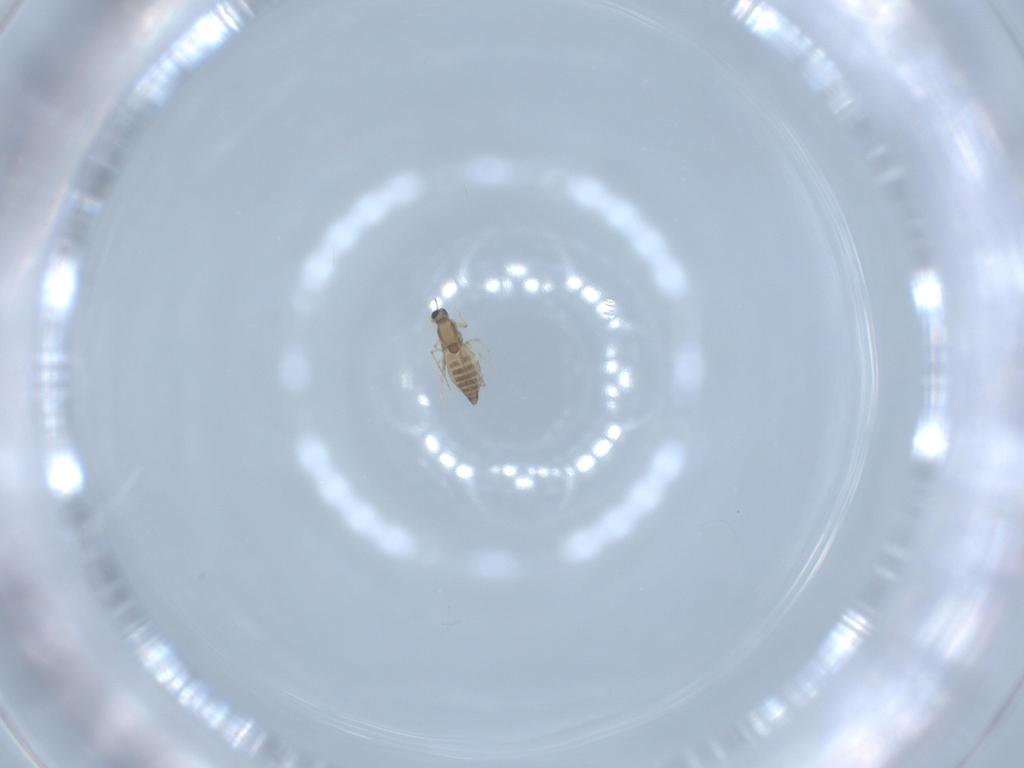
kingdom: Animalia
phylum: Arthropoda
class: Insecta
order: Diptera
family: Chironomidae
